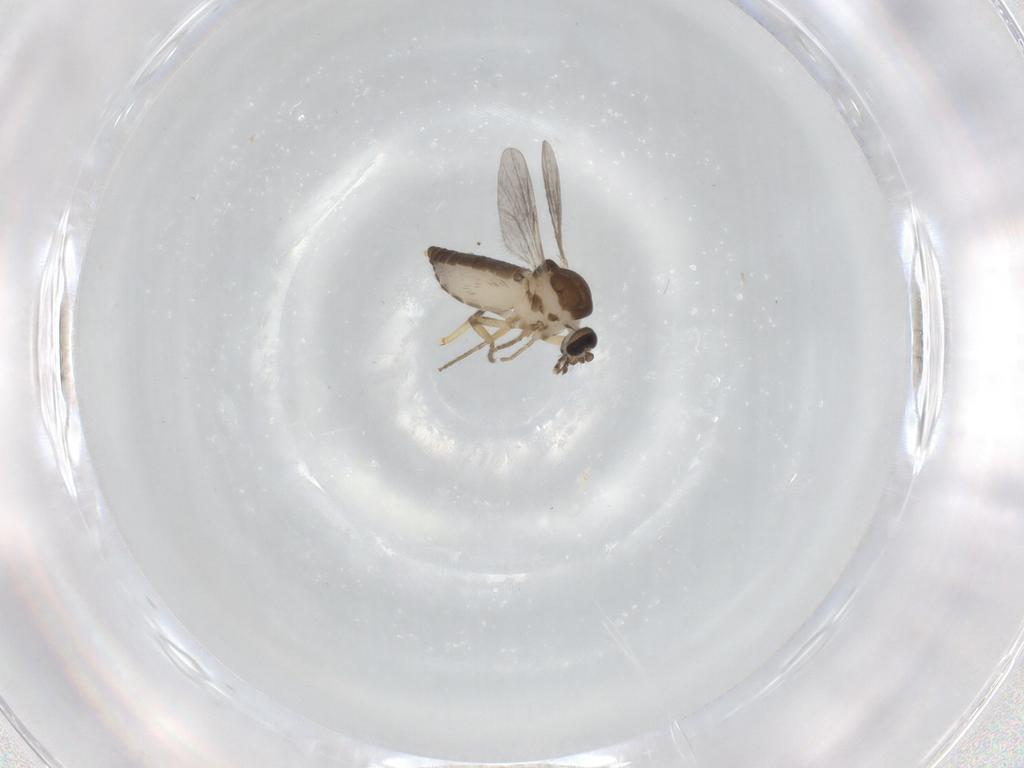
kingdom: Animalia
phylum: Arthropoda
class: Insecta
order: Diptera
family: Ceratopogonidae
